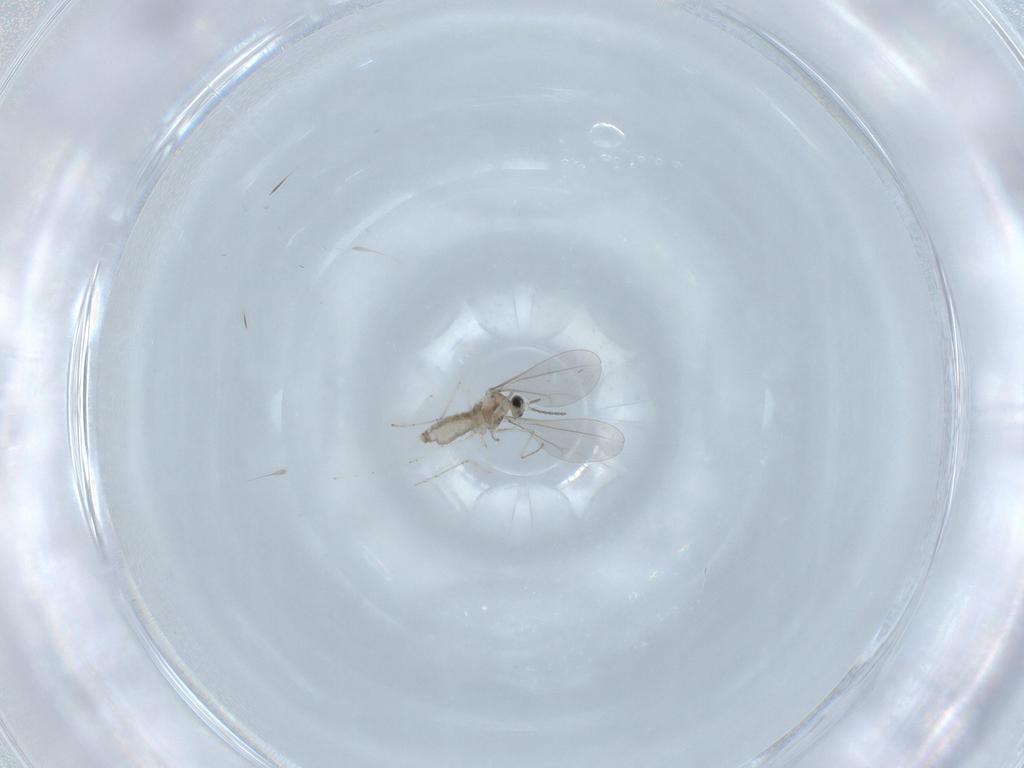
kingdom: Animalia
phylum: Arthropoda
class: Insecta
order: Diptera
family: Cecidomyiidae
